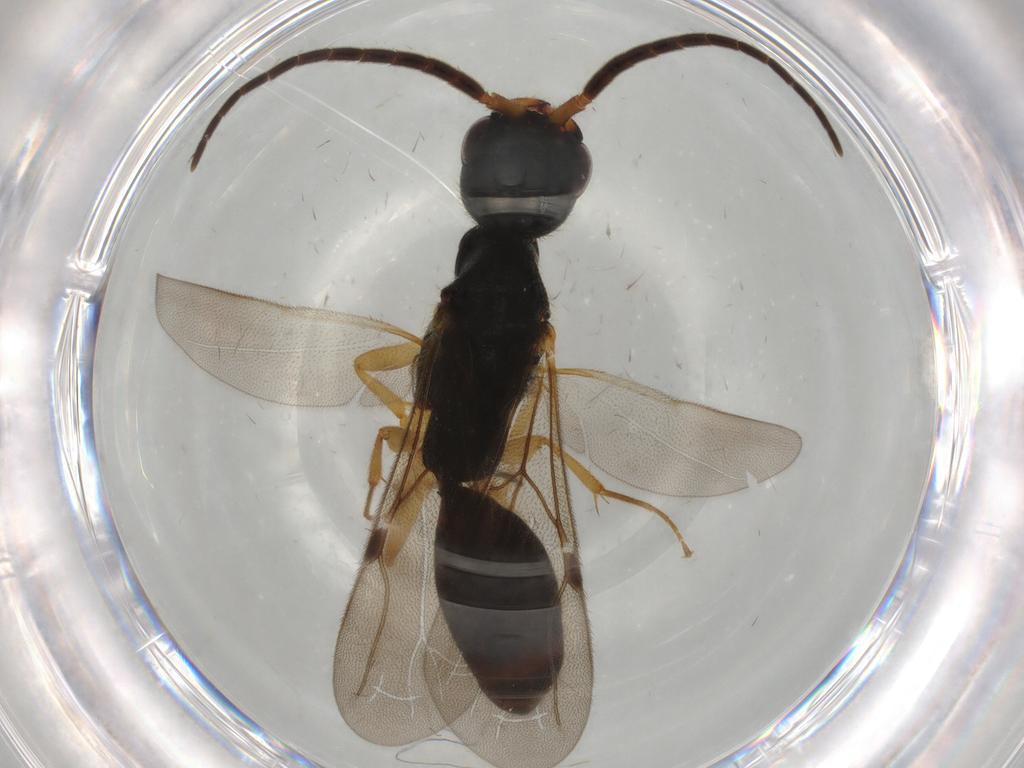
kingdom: Animalia
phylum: Arthropoda
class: Insecta
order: Hymenoptera
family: Bethylidae
